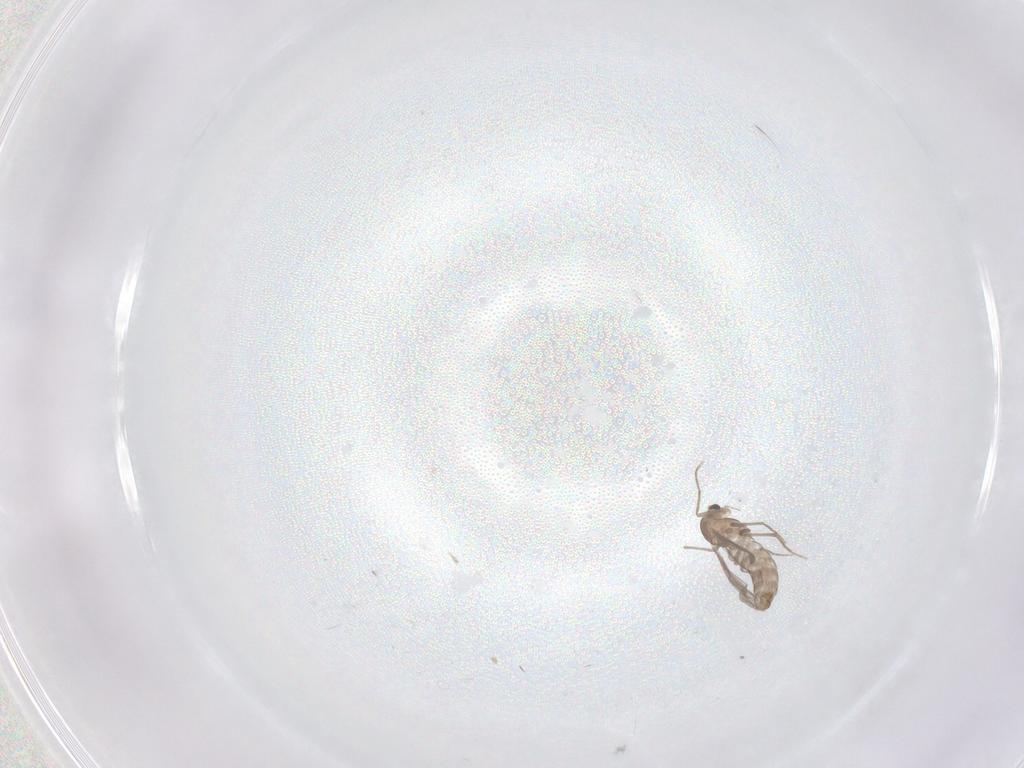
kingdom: Animalia
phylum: Arthropoda
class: Insecta
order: Diptera
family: Chironomidae
